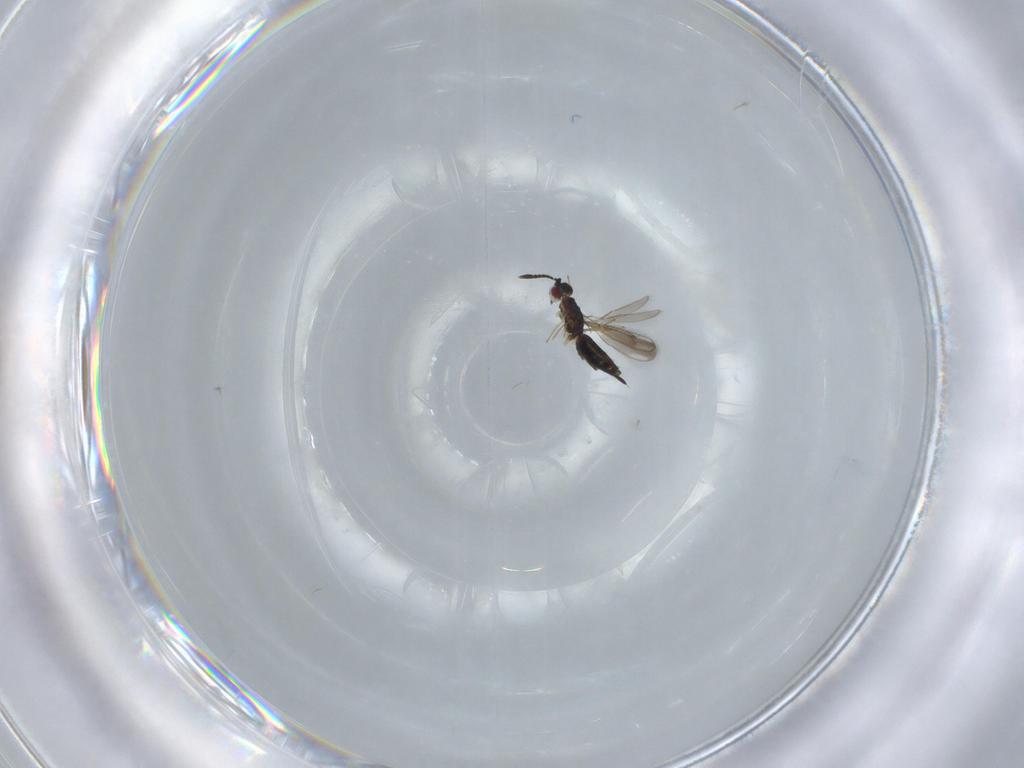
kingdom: Animalia
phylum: Arthropoda
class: Insecta
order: Hymenoptera
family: Pteromalidae
